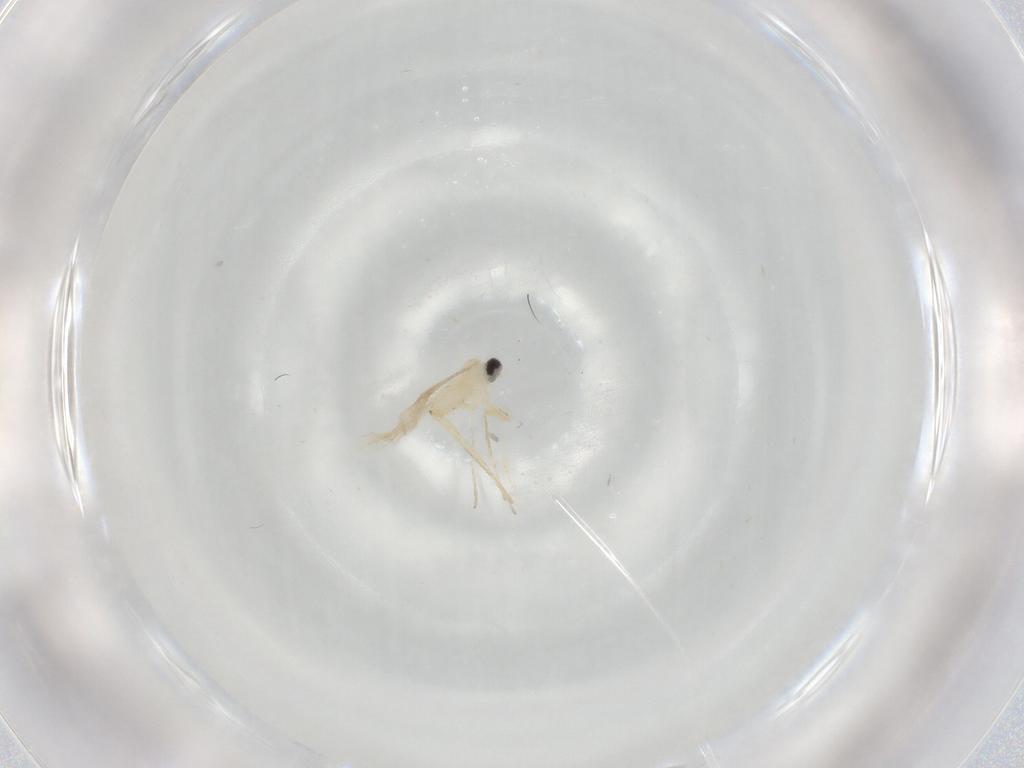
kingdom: Animalia
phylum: Arthropoda
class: Insecta
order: Diptera
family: Cecidomyiidae
